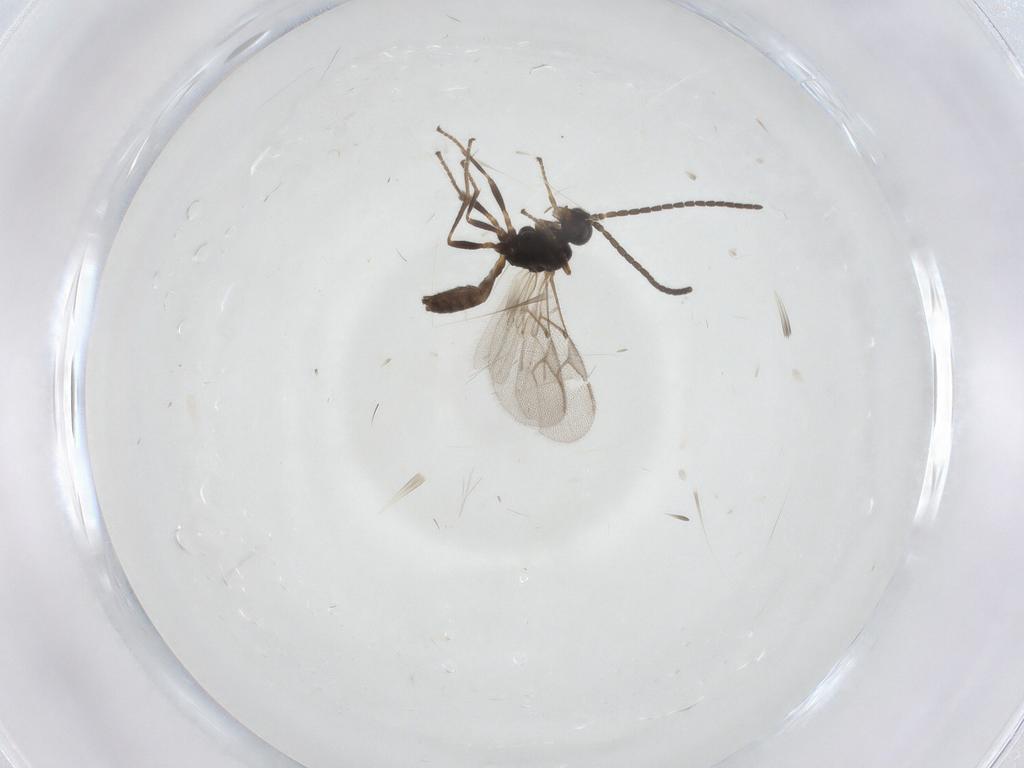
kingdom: Animalia
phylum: Arthropoda
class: Insecta
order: Hymenoptera
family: Braconidae
